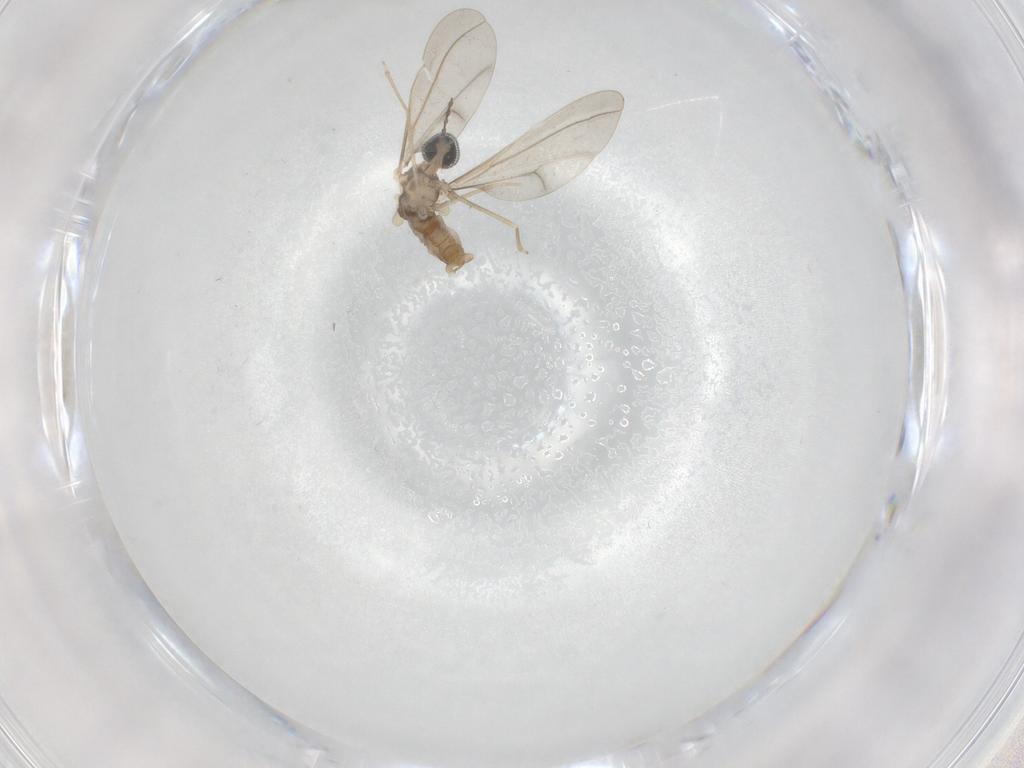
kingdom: Animalia
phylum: Arthropoda
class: Insecta
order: Diptera
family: Cecidomyiidae
